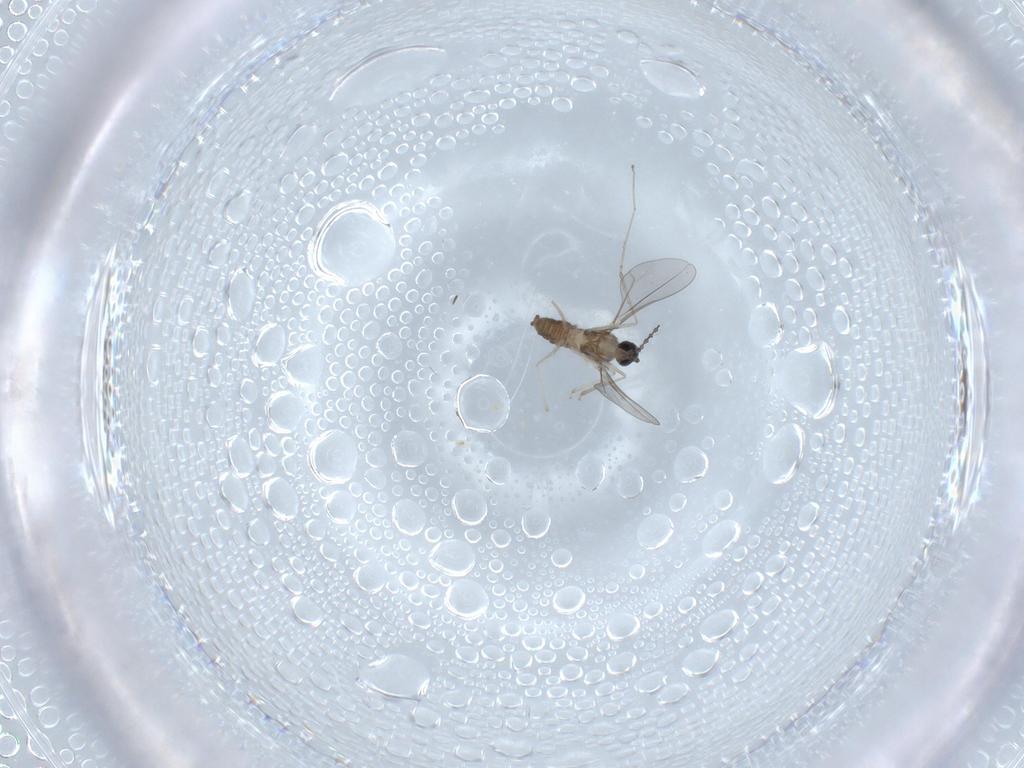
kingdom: Animalia
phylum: Arthropoda
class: Insecta
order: Diptera
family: Cecidomyiidae
